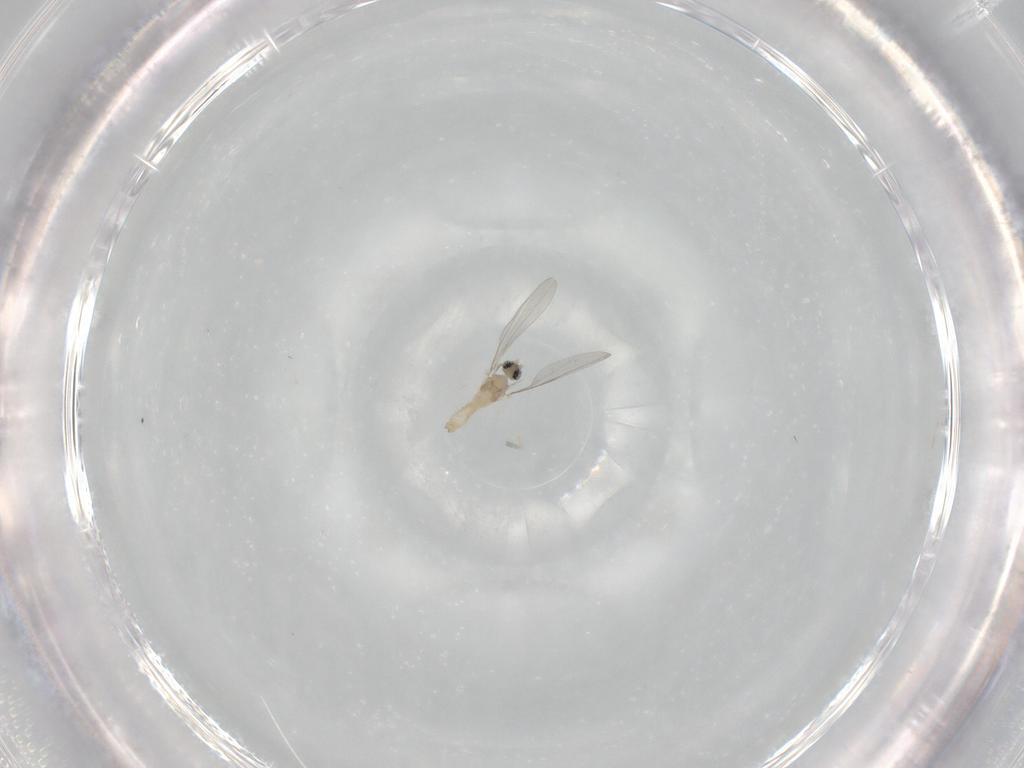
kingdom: Animalia
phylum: Arthropoda
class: Insecta
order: Diptera
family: Cecidomyiidae
